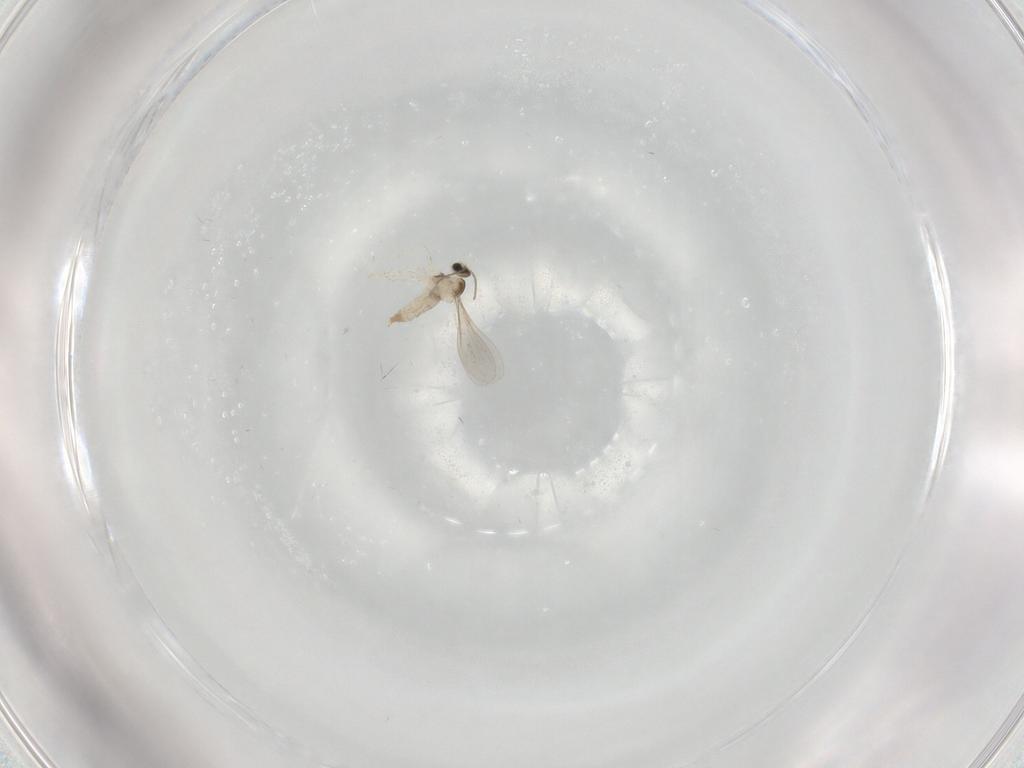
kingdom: Animalia
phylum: Arthropoda
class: Insecta
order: Diptera
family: Cecidomyiidae
